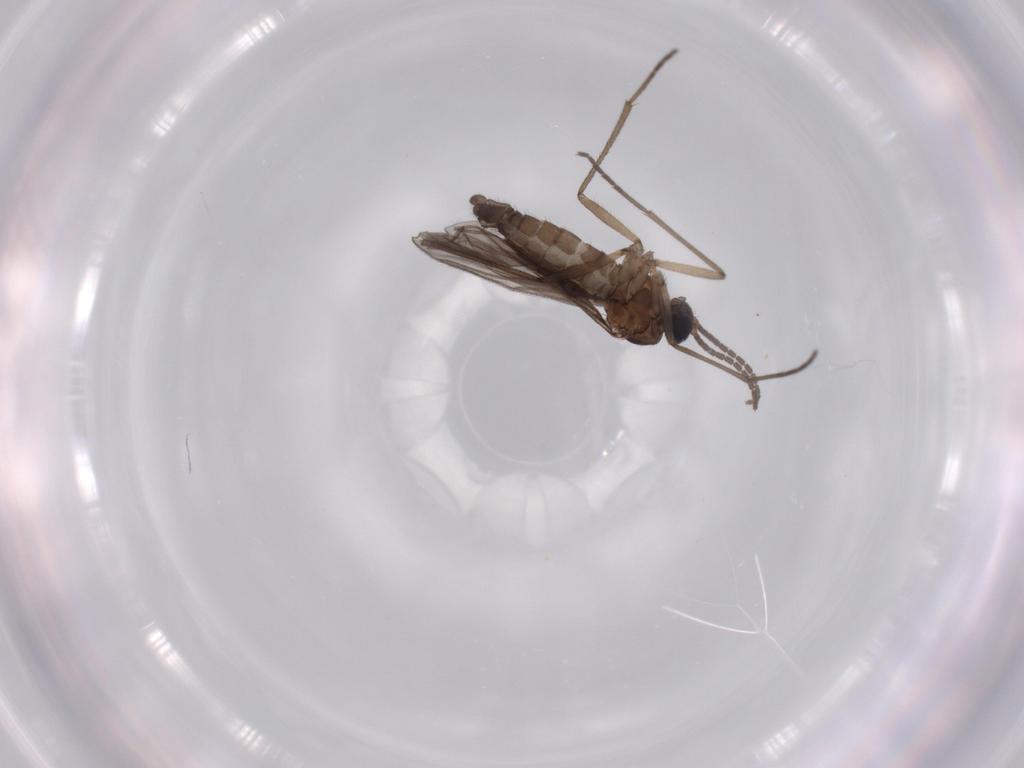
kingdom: Animalia
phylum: Arthropoda
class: Insecta
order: Diptera
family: Sciaridae
